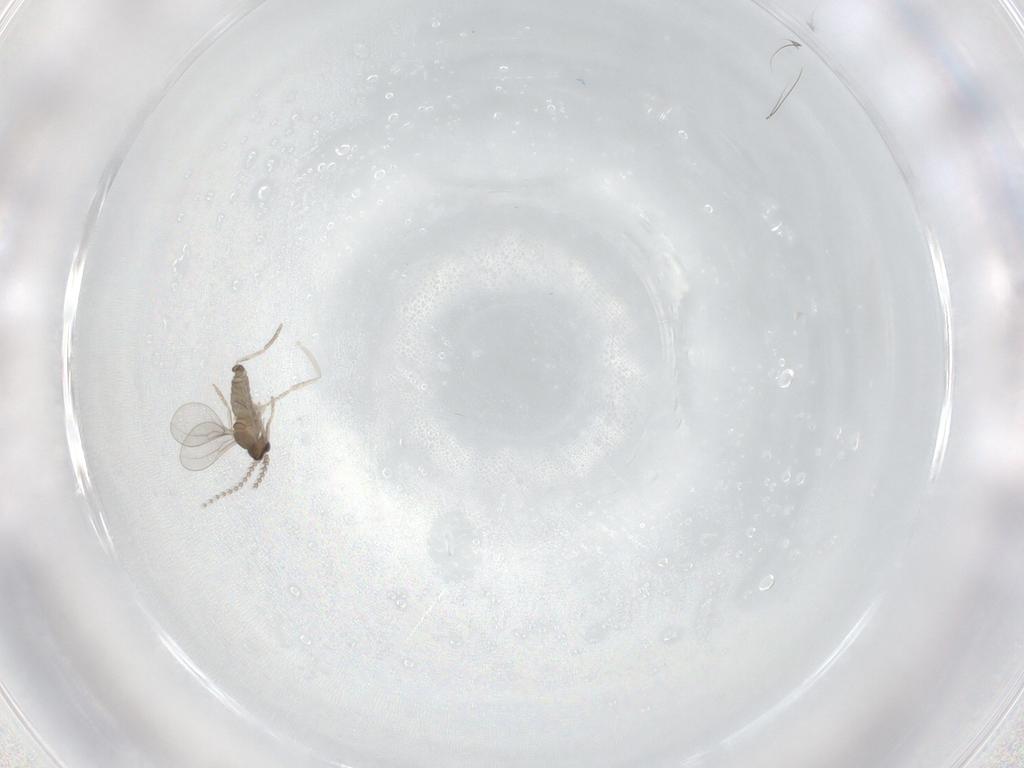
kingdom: Animalia
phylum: Arthropoda
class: Insecta
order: Diptera
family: Cecidomyiidae
